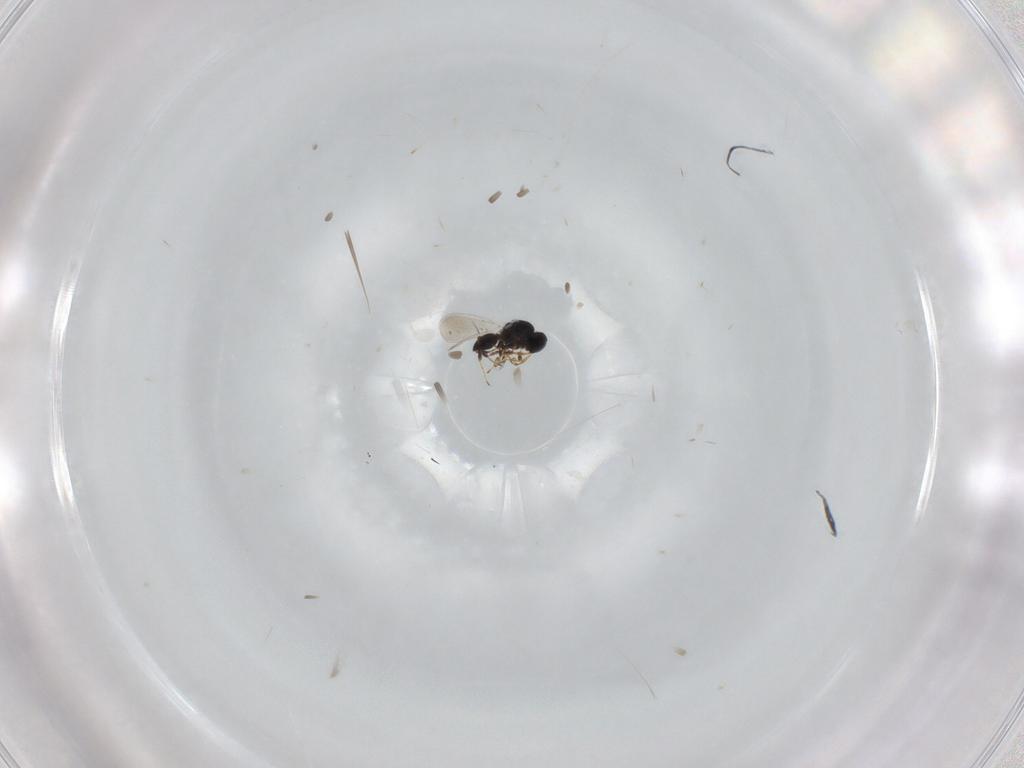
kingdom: Animalia
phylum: Arthropoda
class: Insecta
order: Hymenoptera
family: Platygastridae
